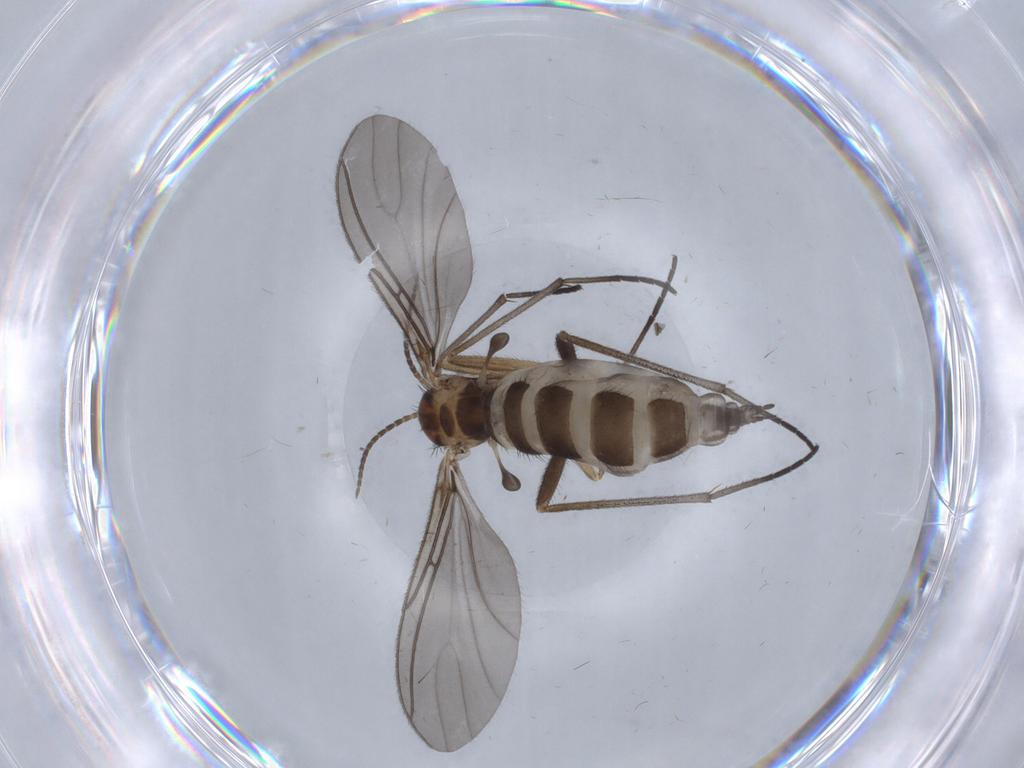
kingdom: Animalia
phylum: Arthropoda
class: Insecta
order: Diptera
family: Sciaridae
